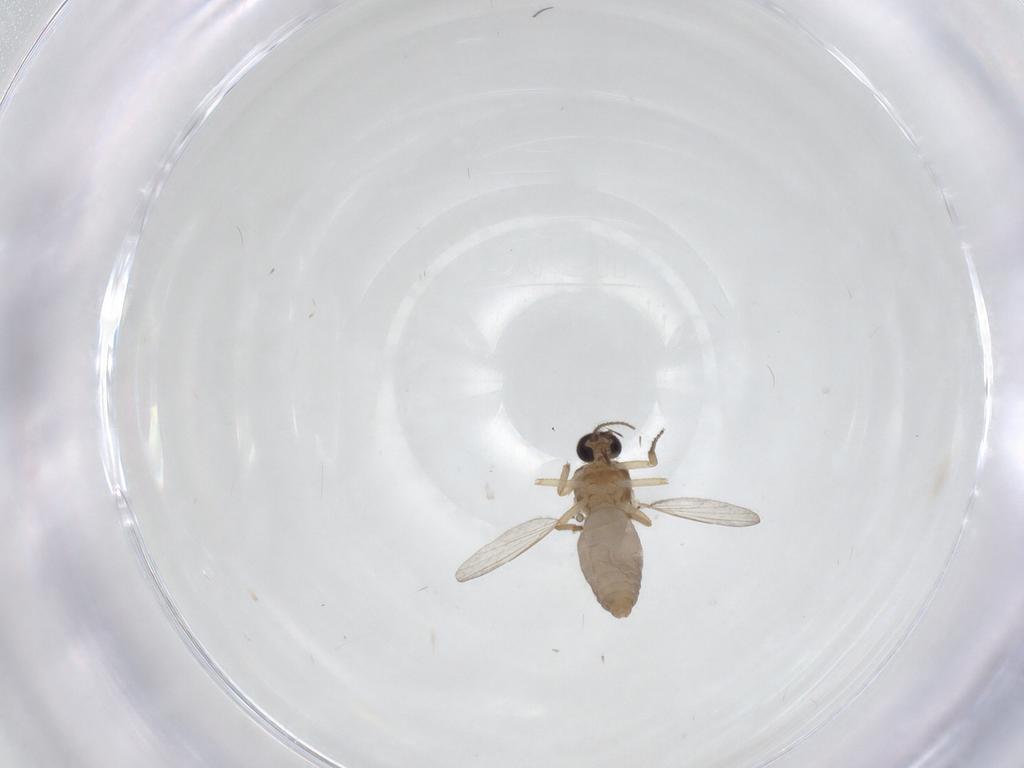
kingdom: Animalia
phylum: Arthropoda
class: Insecta
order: Diptera
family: Ceratopogonidae
